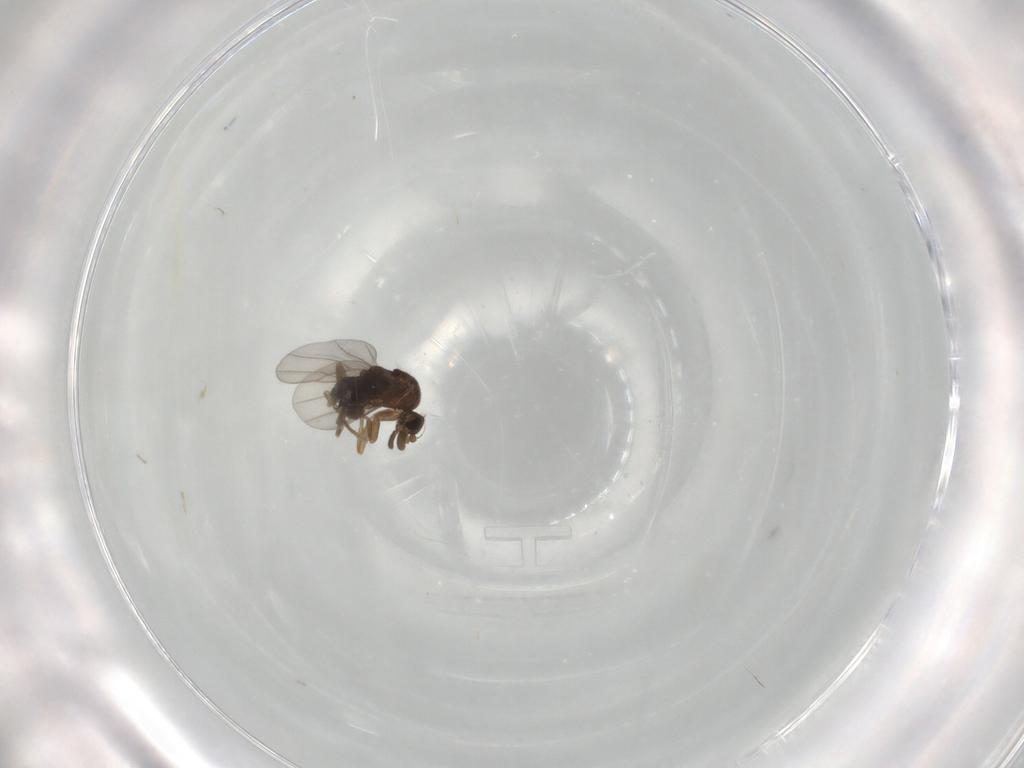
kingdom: Animalia
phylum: Arthropoda
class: Insecta
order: Diptera
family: Phoridae
